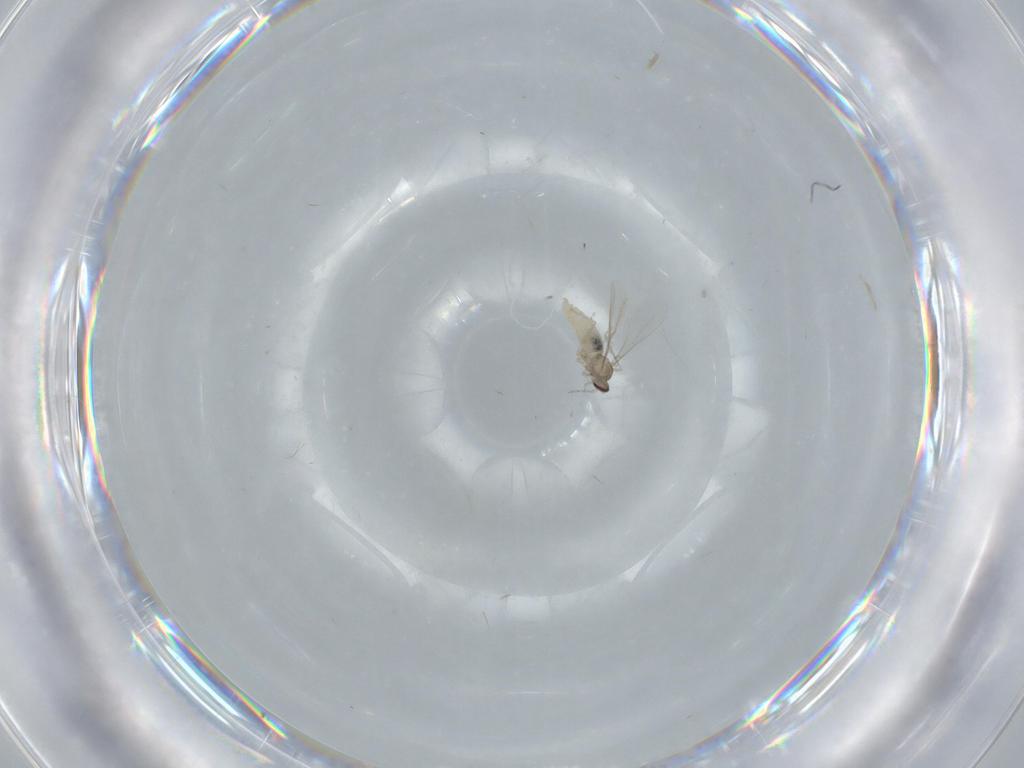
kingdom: Animalia
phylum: Arthropoda
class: Insecta
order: Diptera
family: Cecidomyiidae
